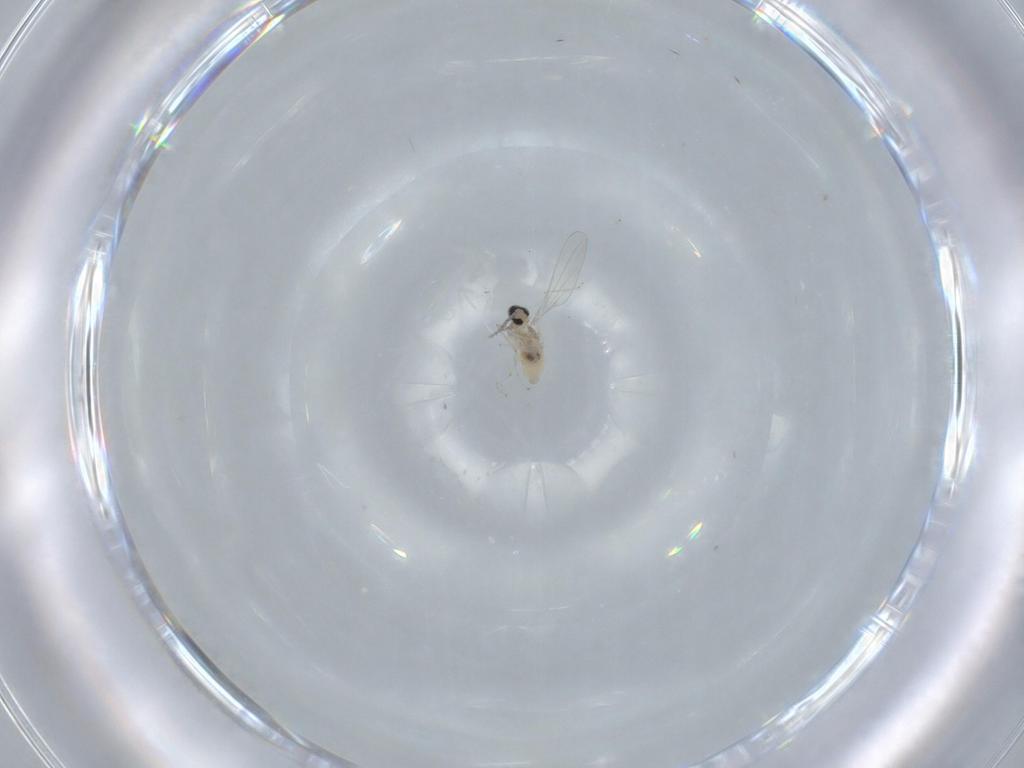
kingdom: Animalia
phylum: Arthropoda
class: Insecta
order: Diptera
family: Cecidomyiidae
